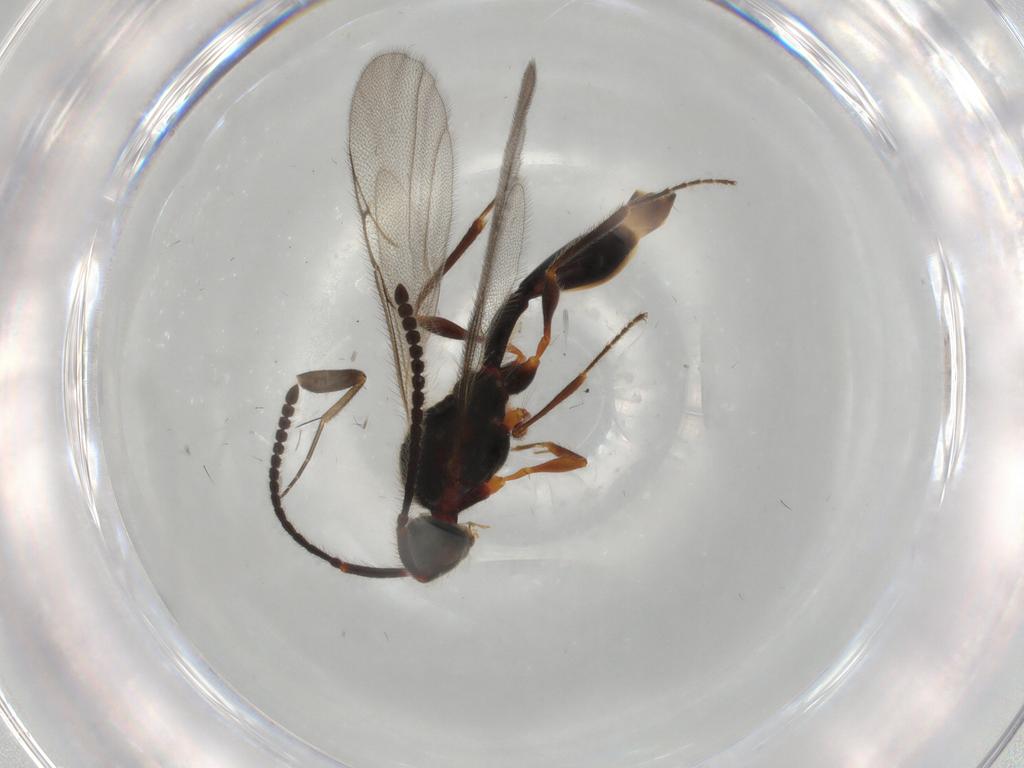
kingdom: Animalia
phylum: Arthropoda
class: Insecta
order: Hymenoptera
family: Diapriidae
